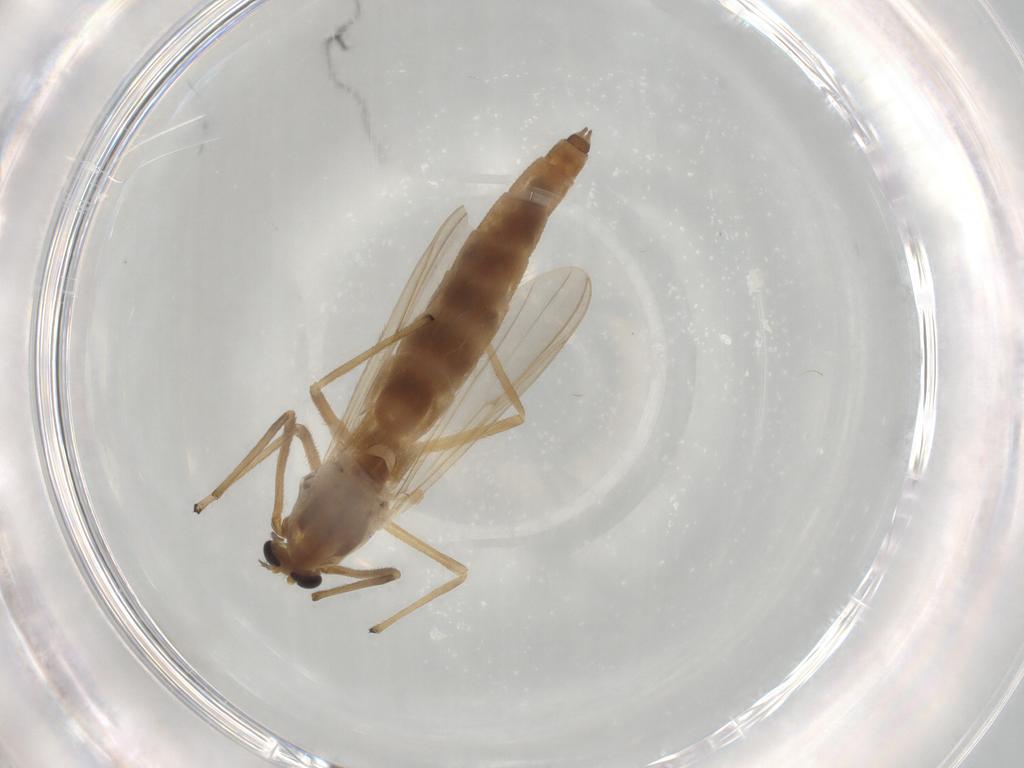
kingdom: Animalia
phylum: Arthropoda
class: Insecta
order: Diptera
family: Chironomidae
